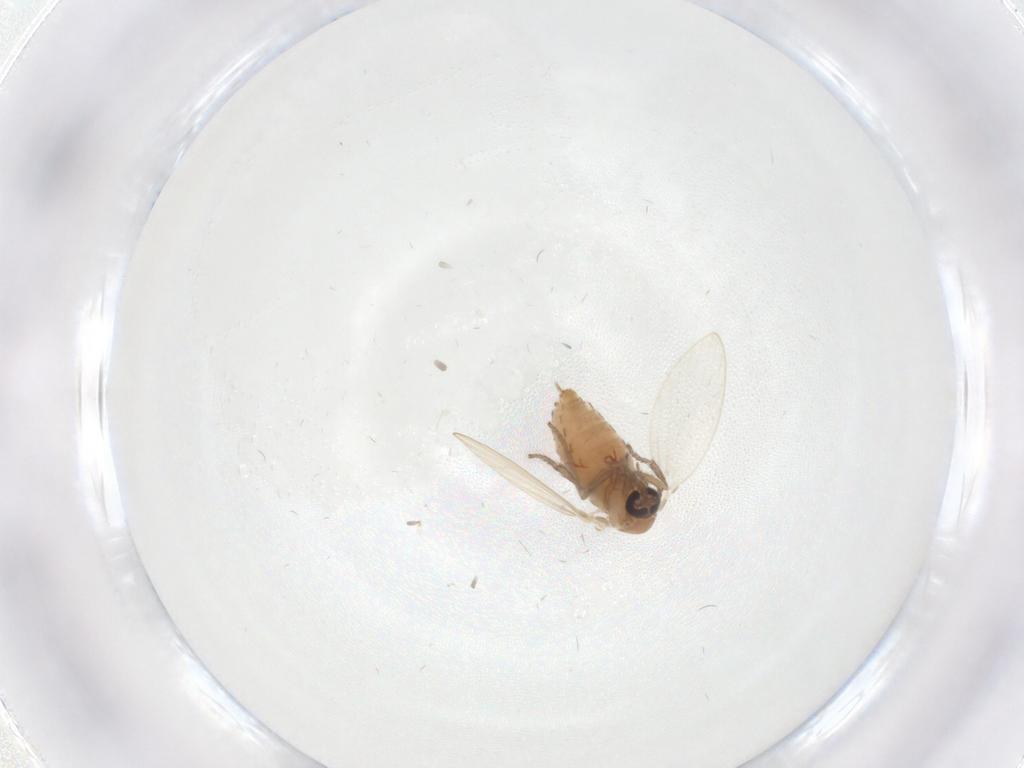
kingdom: Animalia
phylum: Arthropoda
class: Insecta
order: Diptera
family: Psychodidae
